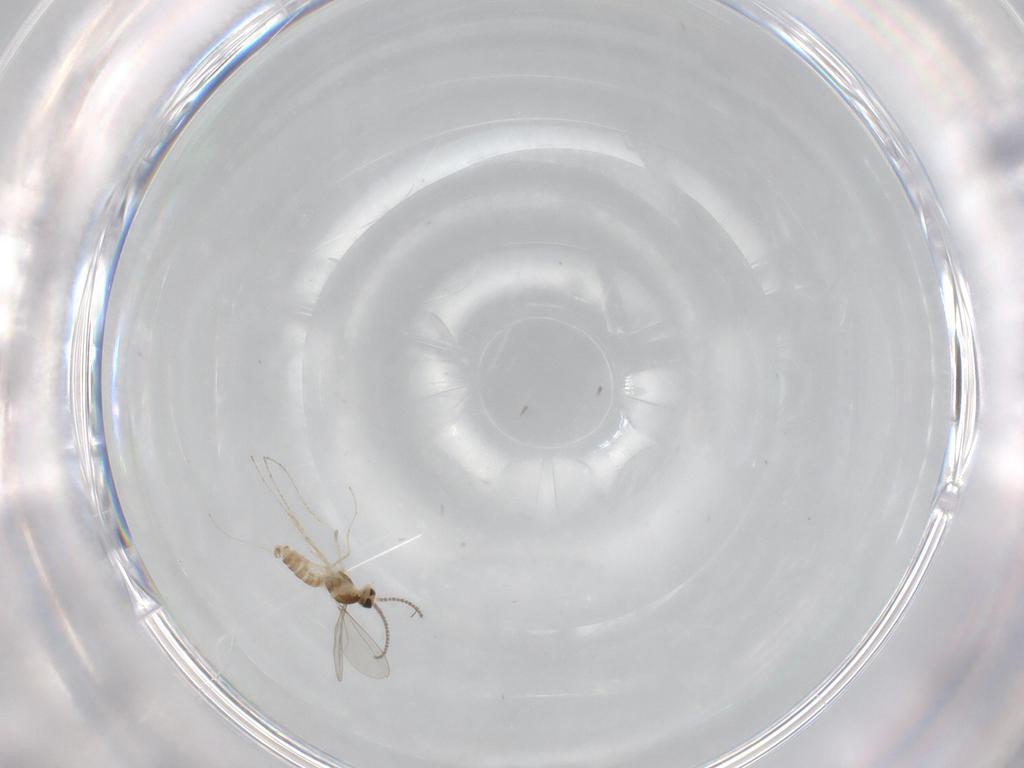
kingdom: Animalia
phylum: Arthropoda
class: Insecta
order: Diptera
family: Cecidomyiidae
